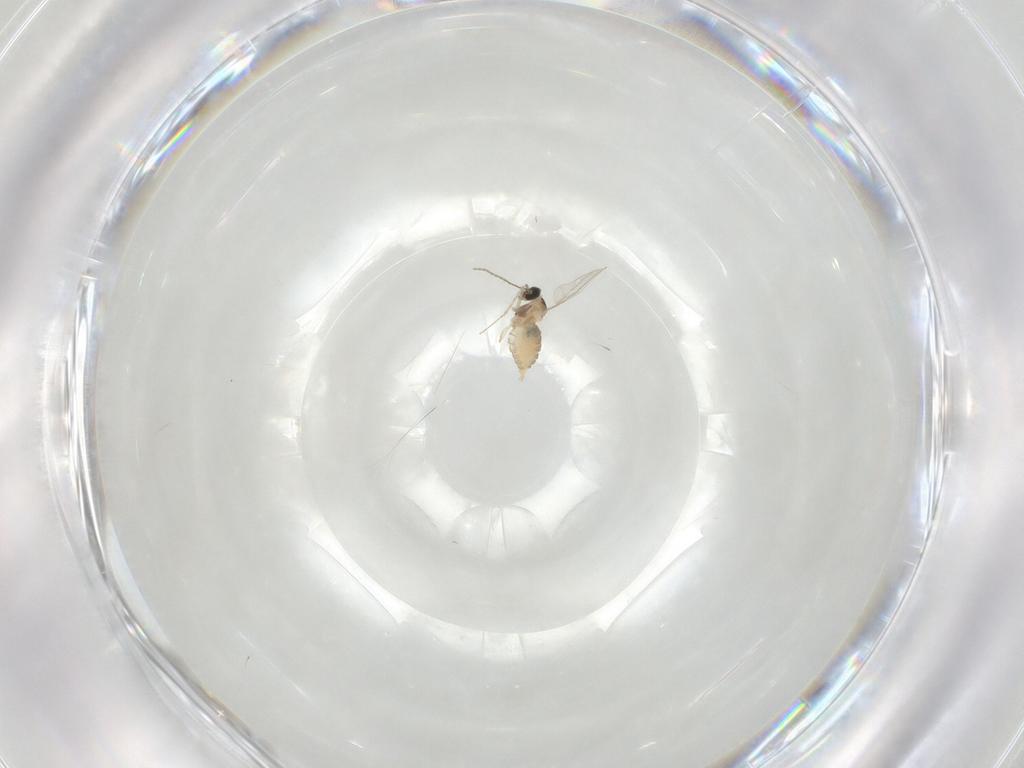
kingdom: Animalia
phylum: Arthropoda
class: Insecta
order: Diptera
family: Cecidomyiidae
